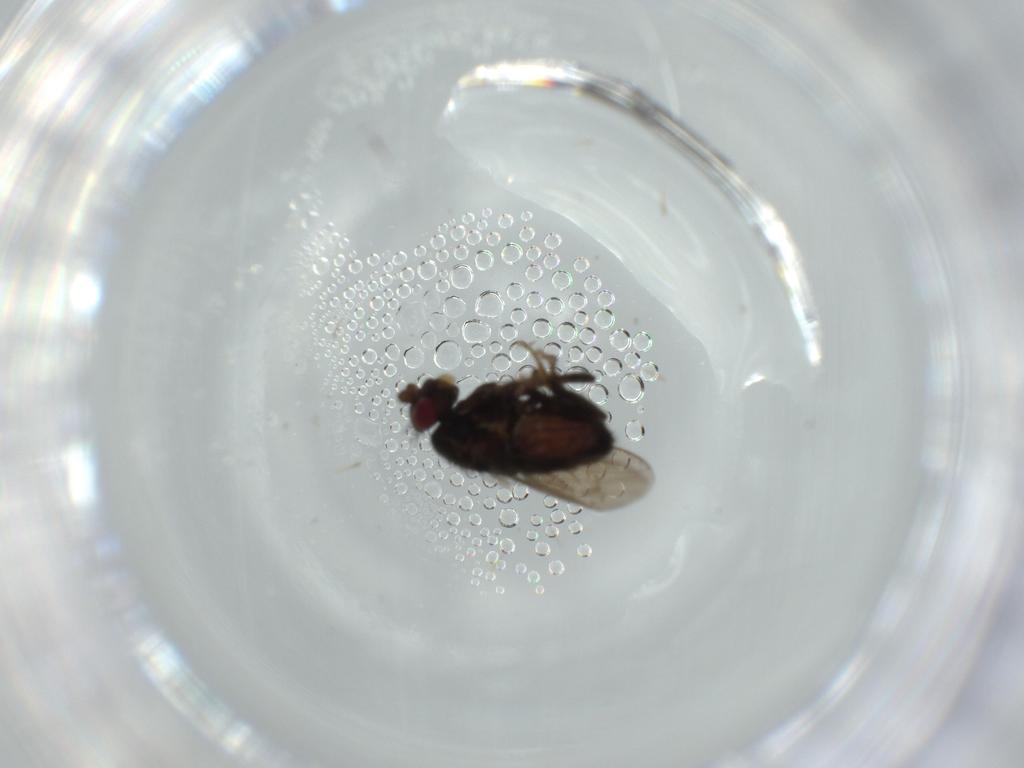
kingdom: Animalia
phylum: Arthropoda
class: Insecta
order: Diptera
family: Sphaeroceridae
